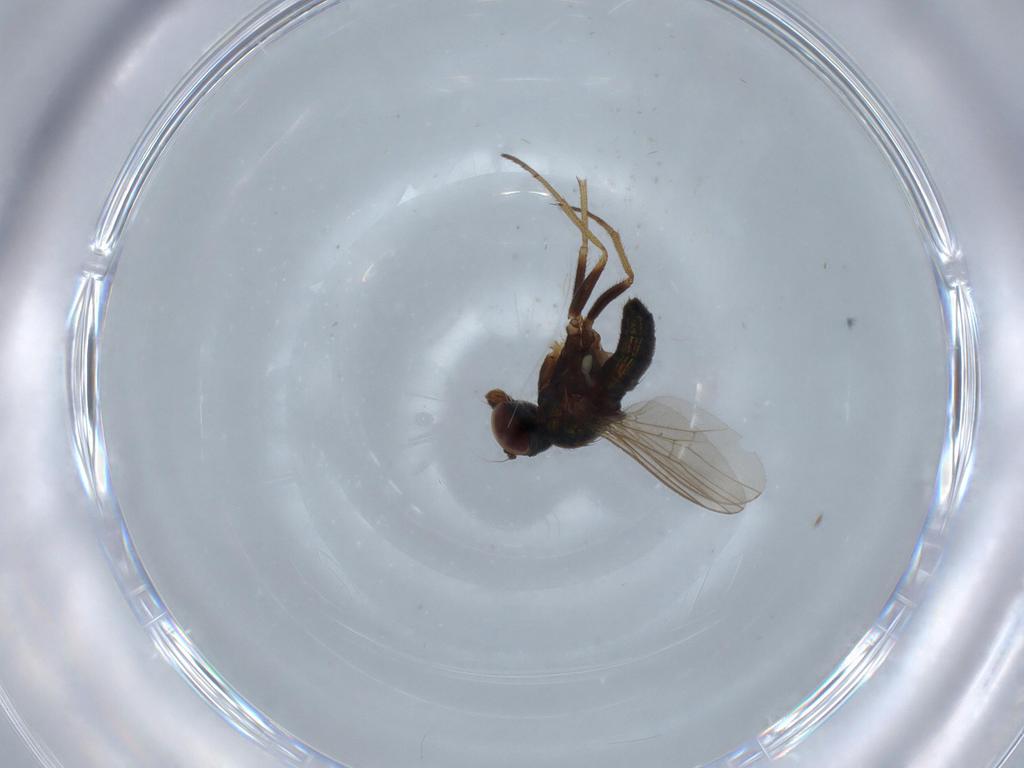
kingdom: Animalia
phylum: Arthropoda
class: Insecta
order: Diptera
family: Dolichopodidae
